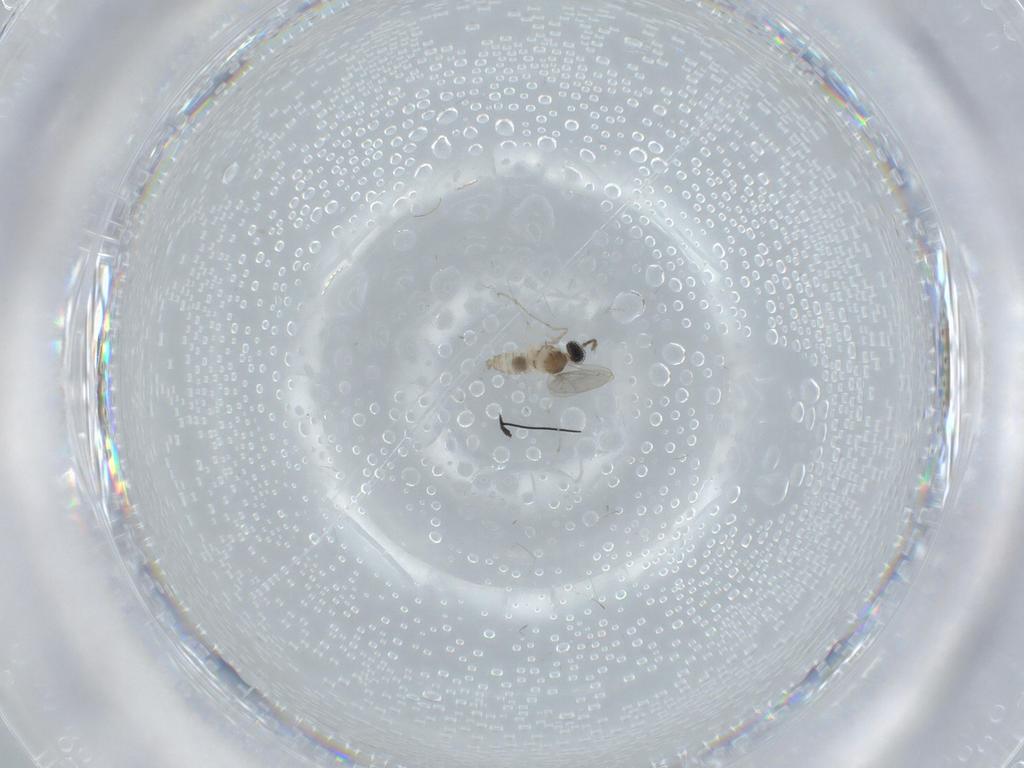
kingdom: Animalia
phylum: Arthropoda
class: Insecta
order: Diptera
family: Cecidomyiidae
